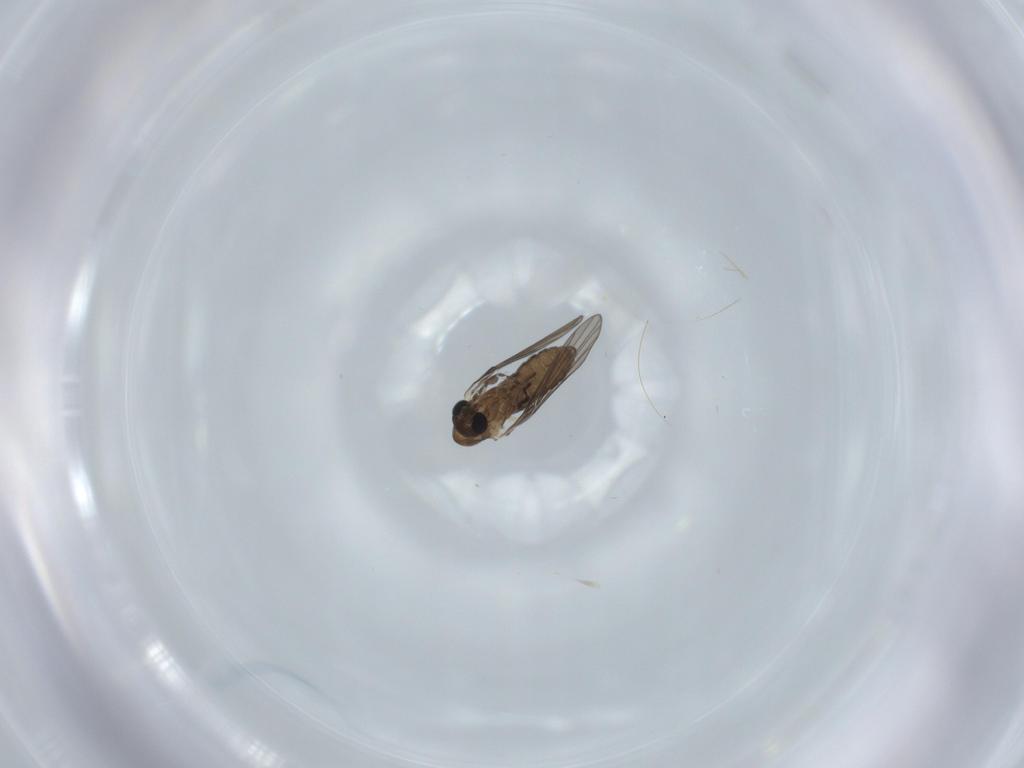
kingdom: Animalia
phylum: Arthropoda
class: Insecta
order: Diptera
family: Psychodidae
